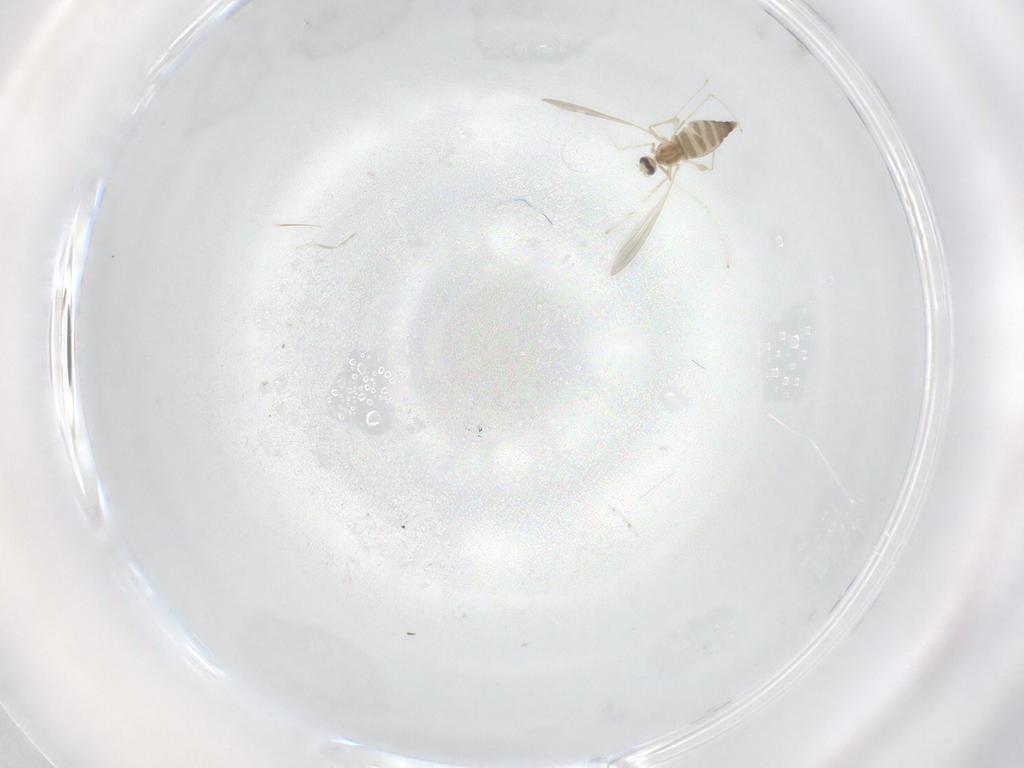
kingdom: Animalia
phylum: Arthropoda
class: Insecta
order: Diptera
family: Cecidomyiidae
